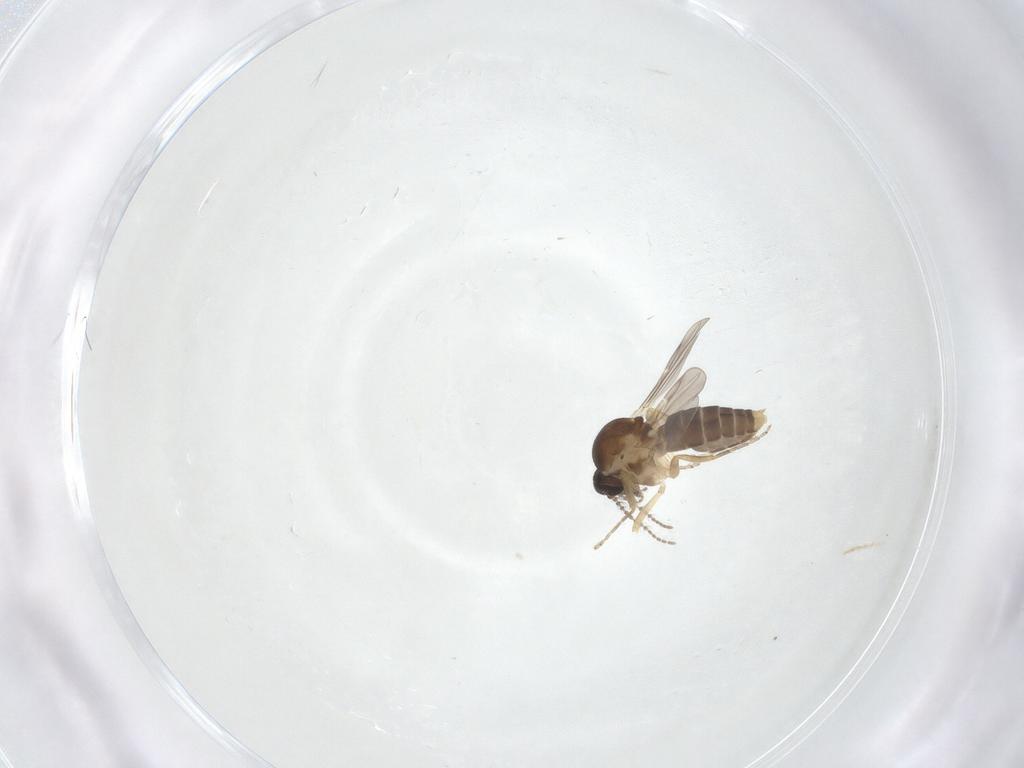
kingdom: Animalia
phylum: Arthropoda
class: Insecta
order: Diptera
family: Ceratopogonidae
